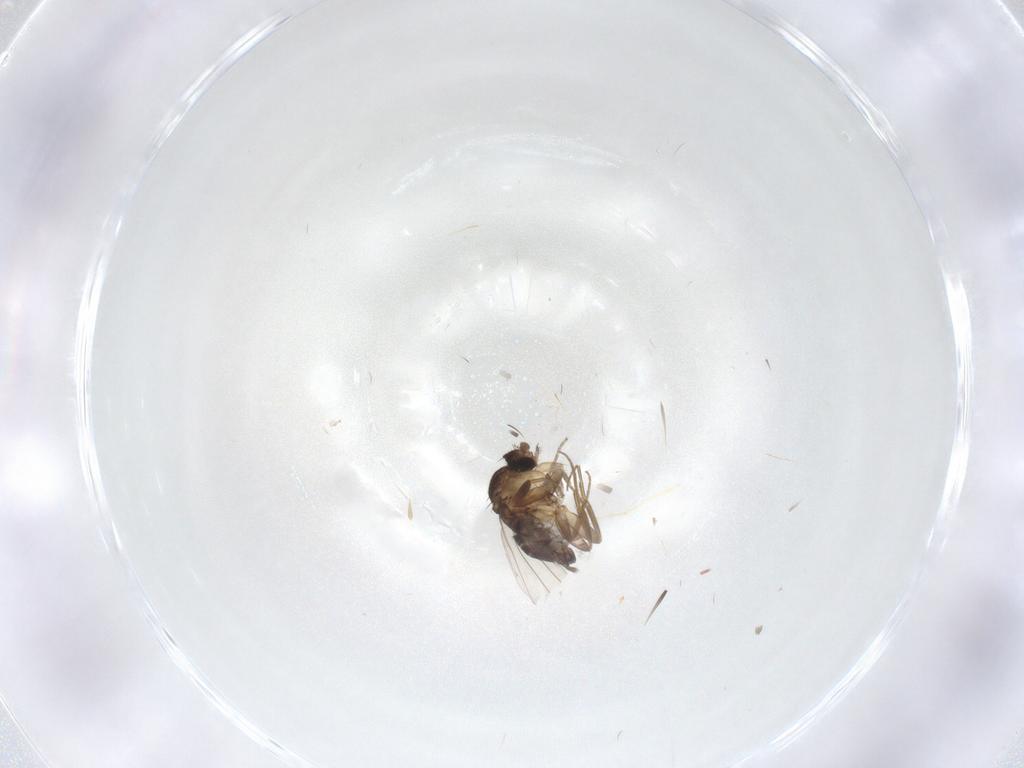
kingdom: Animalia
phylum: Arthropoda
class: Insecta
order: Diptera
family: Phoridae
